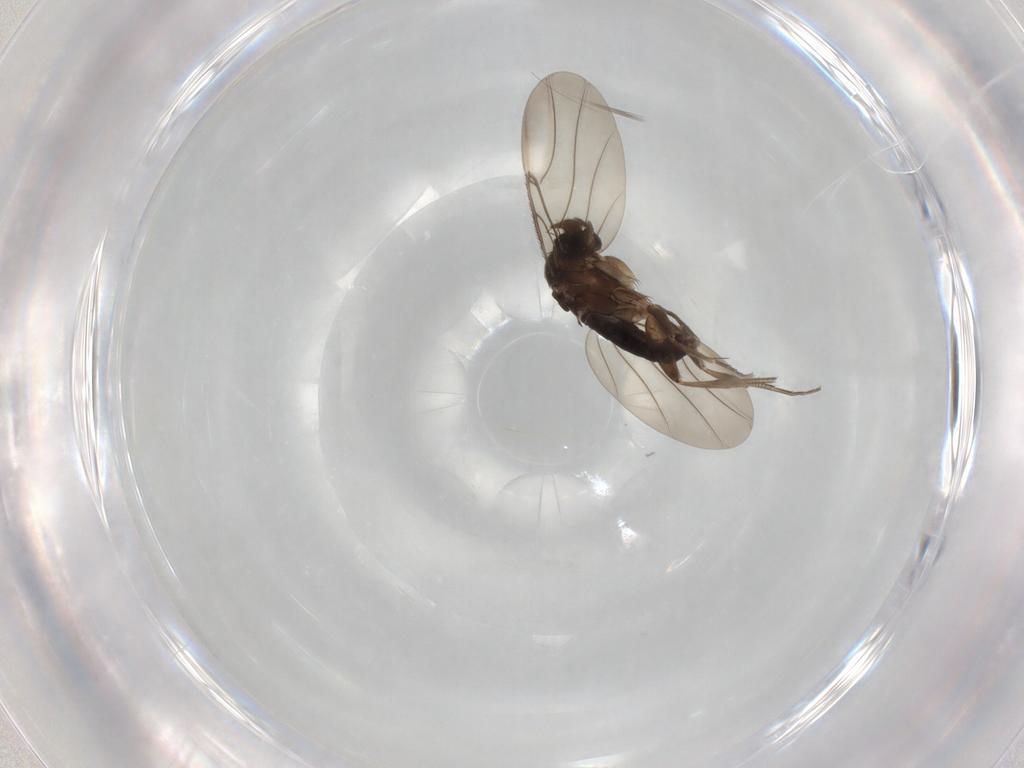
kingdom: Animalia
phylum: Arthropoda
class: Insecta
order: Diptera
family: Phoridae
